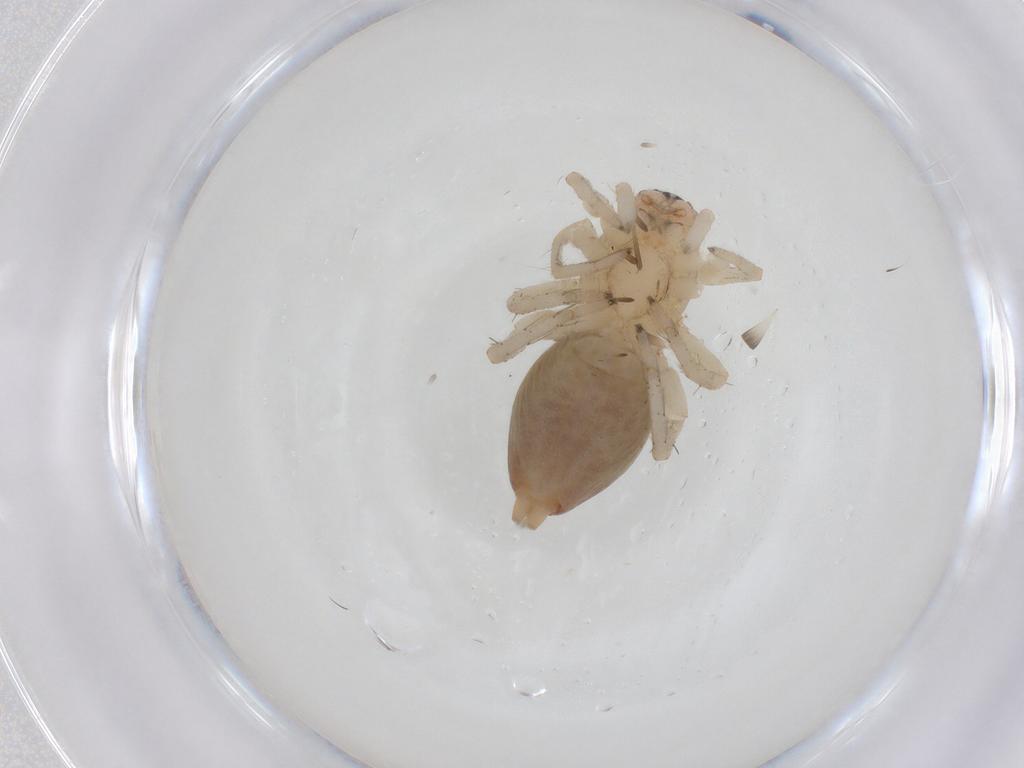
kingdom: Animalia
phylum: Arthropoda
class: Arachnida
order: Araneae
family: Clubionidae
